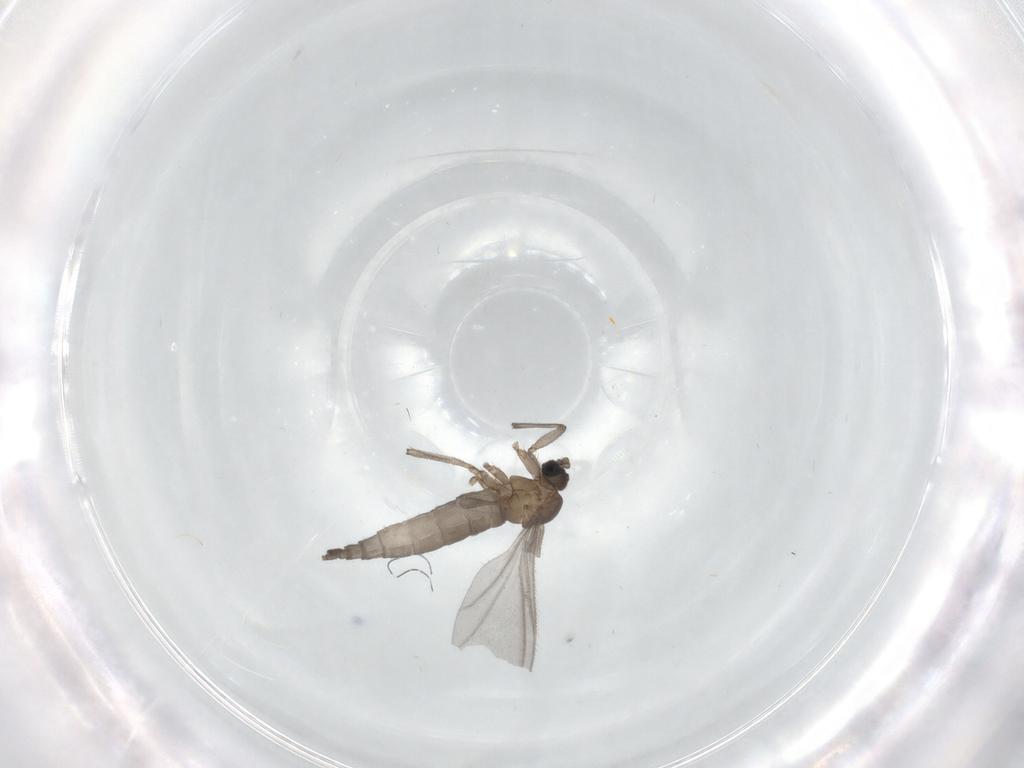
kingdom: Animalia
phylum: Arthropoda
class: Insecta
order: Diptera
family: Sciaridae
